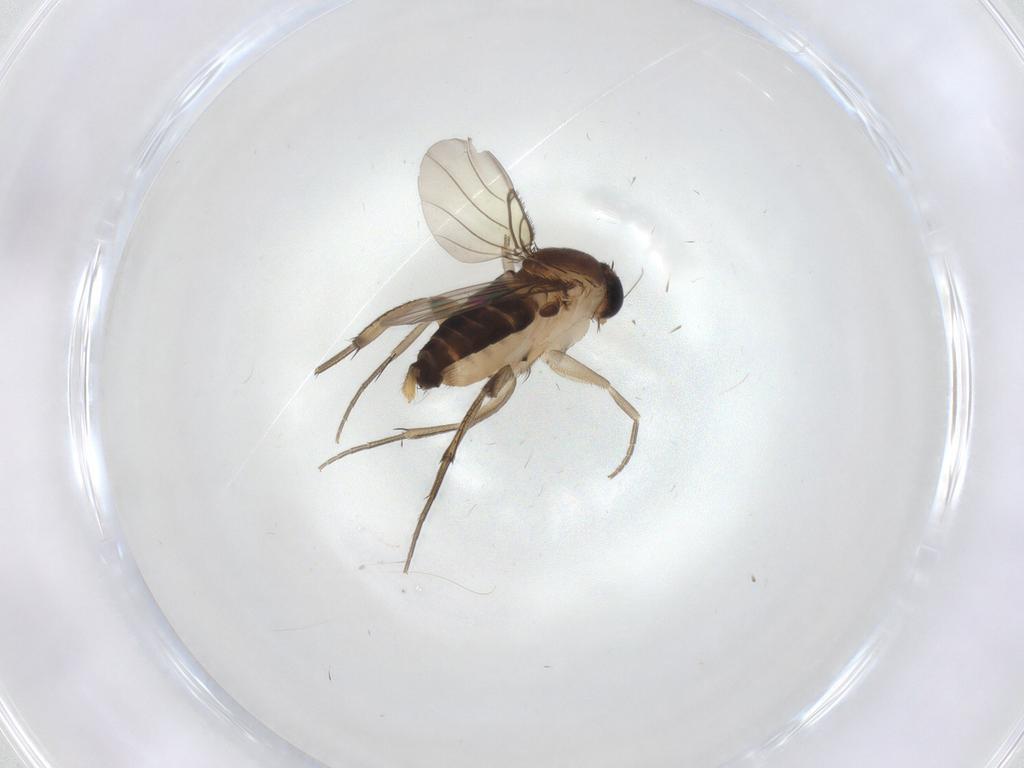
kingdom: Animalia
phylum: Arthropoda
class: Insecta
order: Diptera
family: Phoridae
